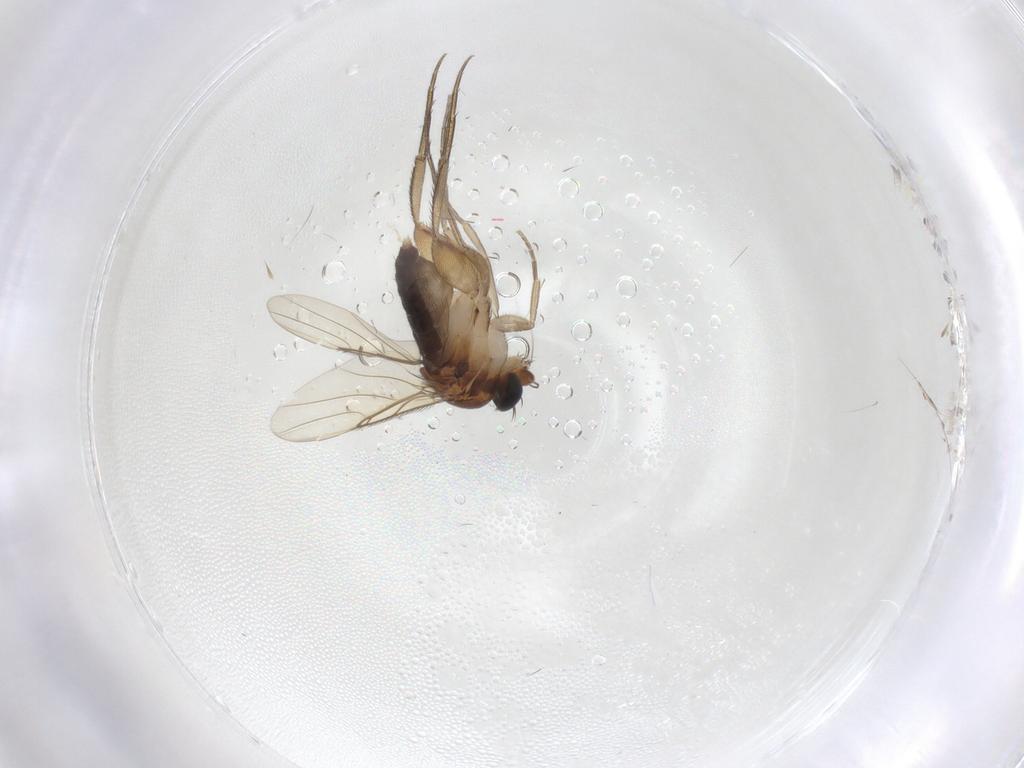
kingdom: Animalia
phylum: Arthropoda
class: Insecta
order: Diptera
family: Phoridae
